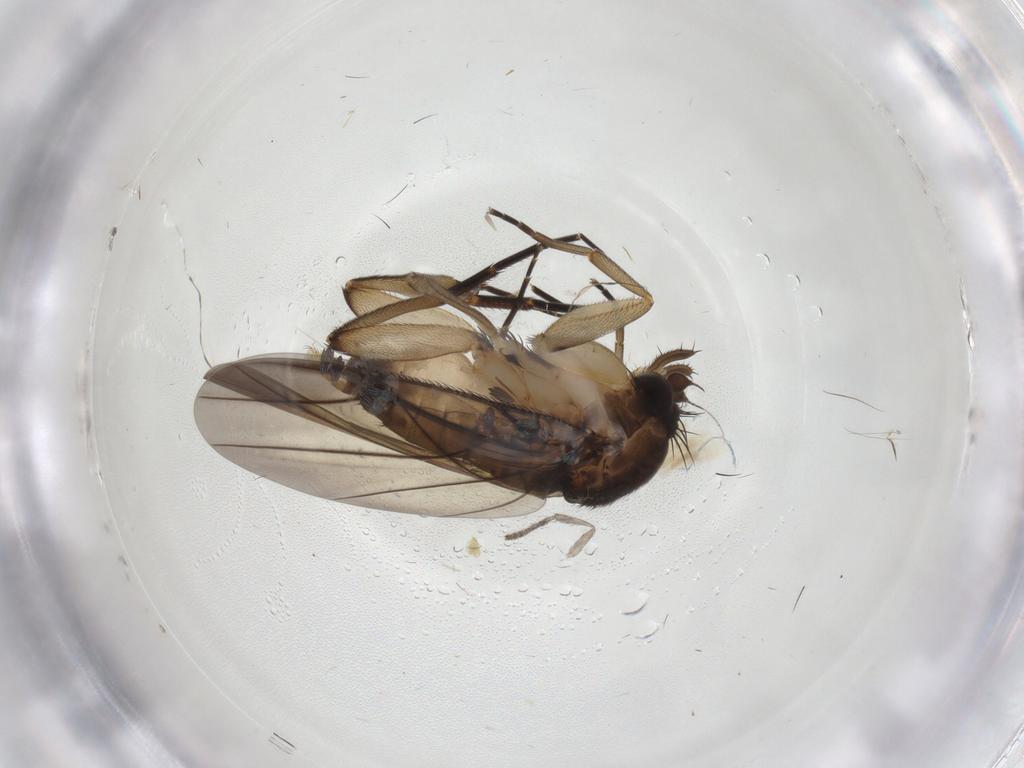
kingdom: Animalia
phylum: Arthropoda
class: Insecta
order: Diptera
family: Phoridae
